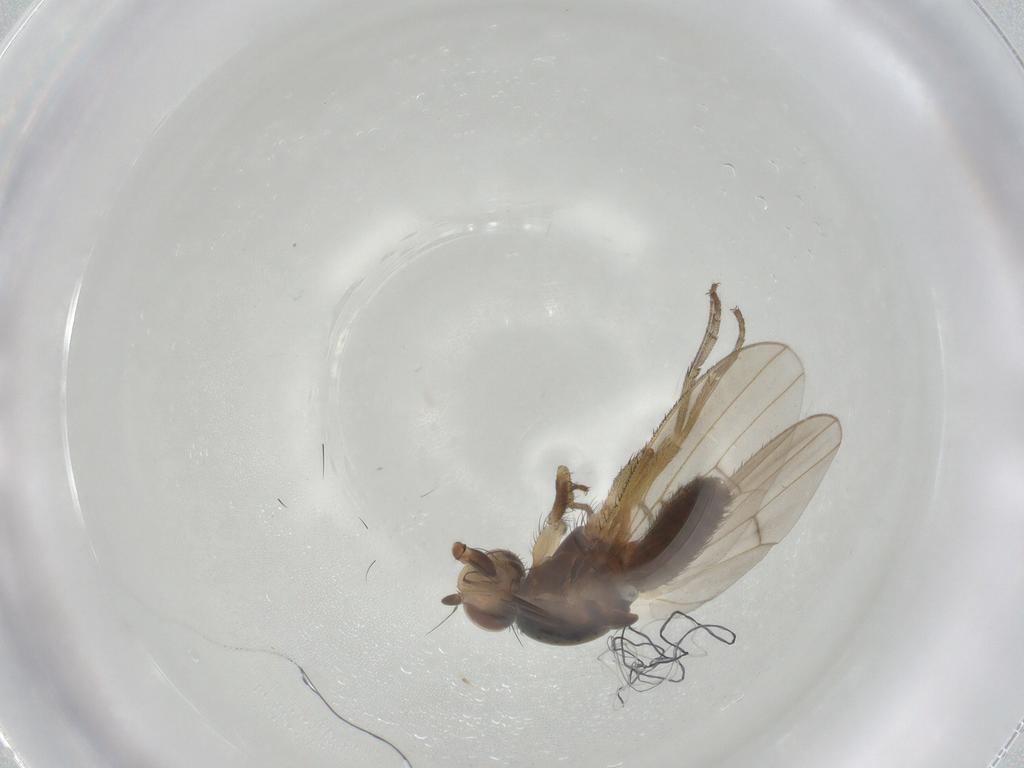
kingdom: Animalia
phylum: Arthropoda
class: Insecta
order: Diptera
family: Heleomyzidae
